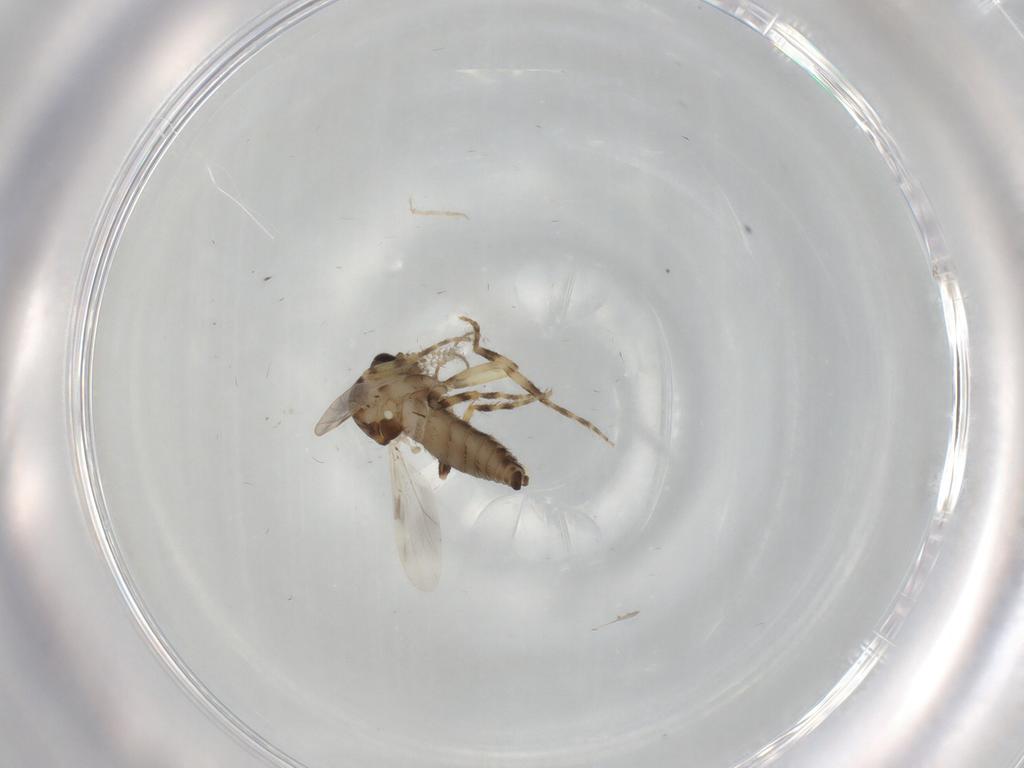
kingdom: Animalia
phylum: Arthropoda
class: Insecta
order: Diptera
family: Ceratopogonidae
